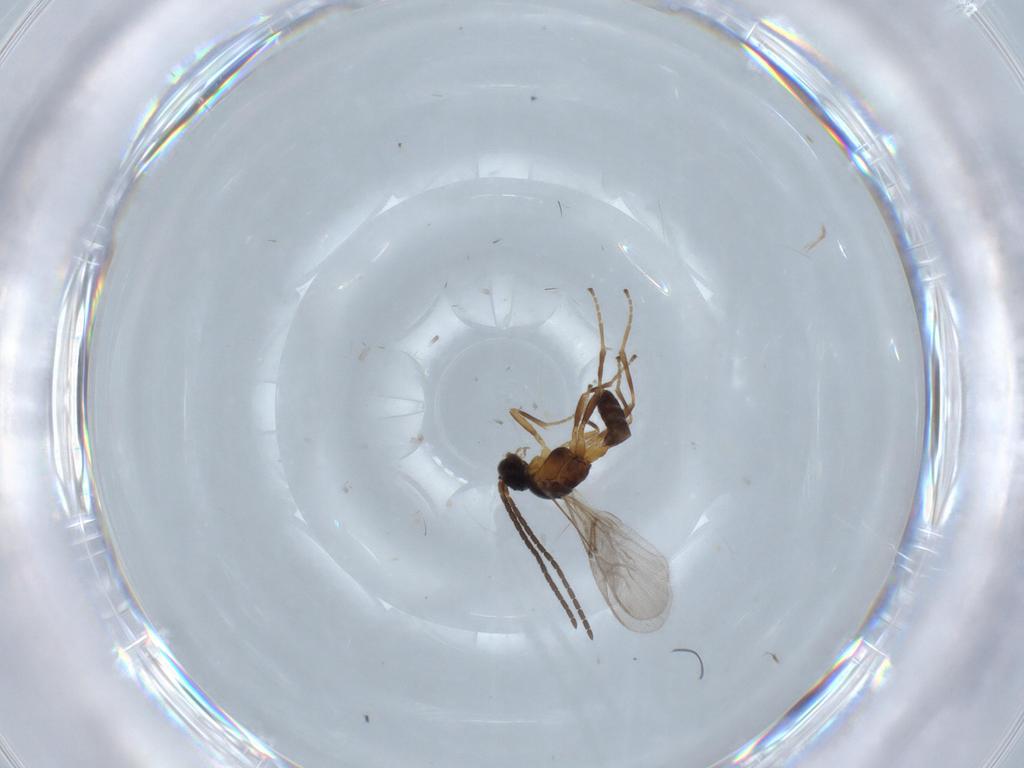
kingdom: Animalia
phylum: Arthropoda
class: Insecta
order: Hymenoptera
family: Braconidae
